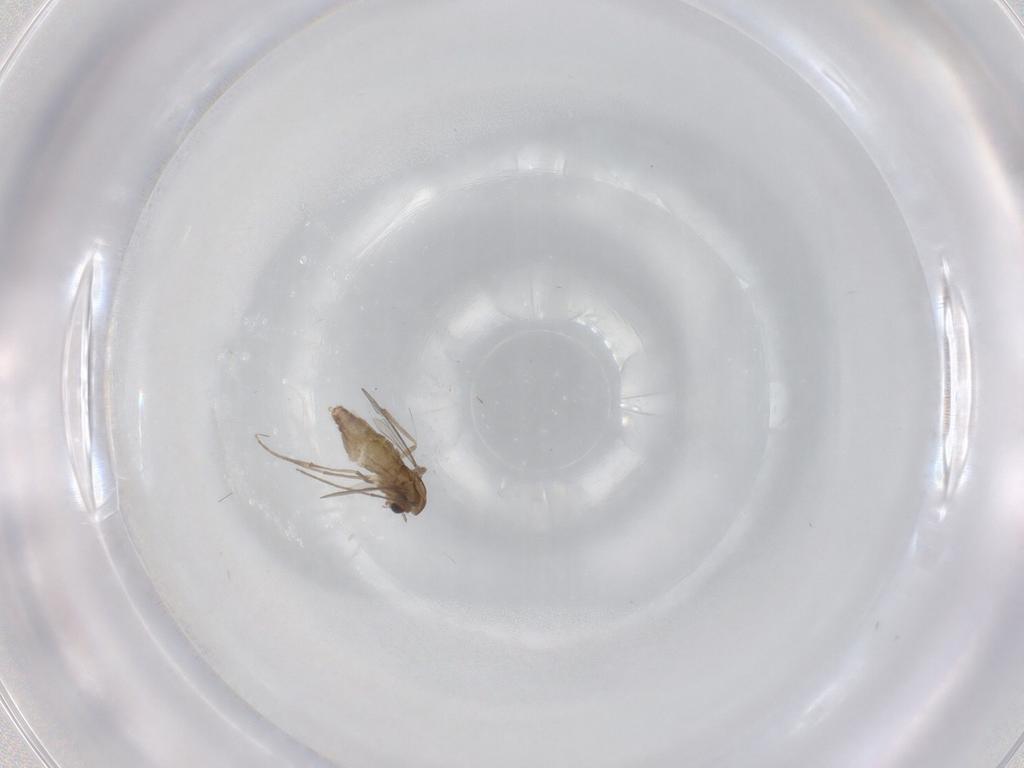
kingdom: Animalia
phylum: Arthropoda
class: Insecta
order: Diptera
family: Chironomidae
